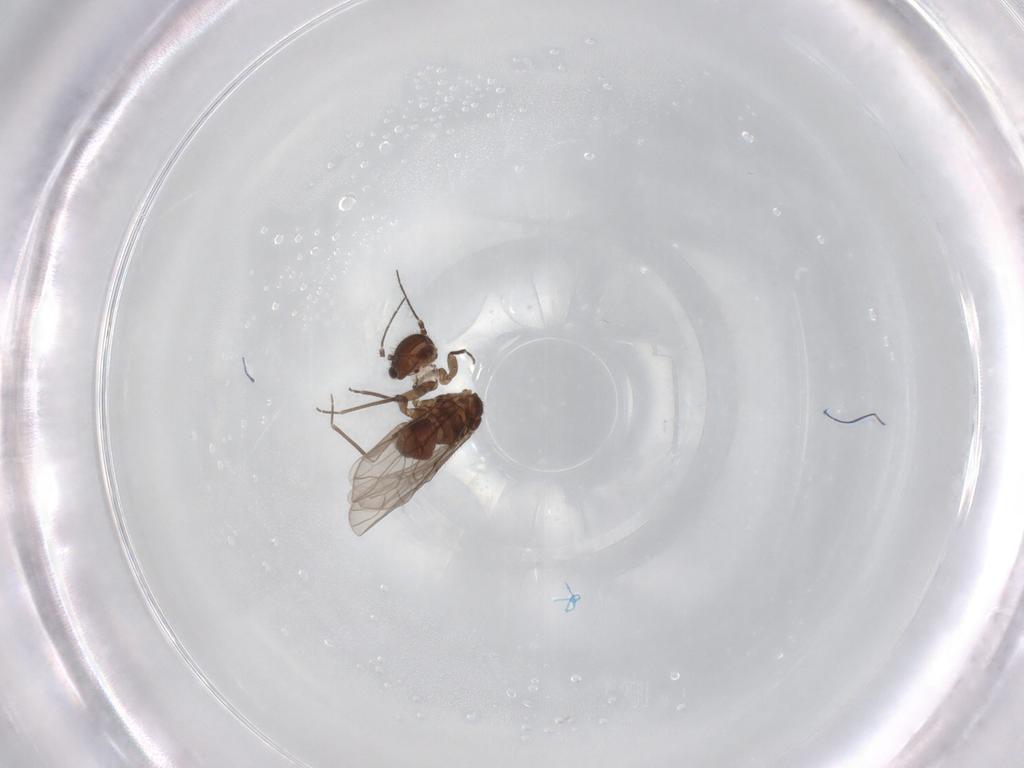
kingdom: Animalia
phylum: Arthropoda
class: Insecta
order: Psocodea
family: Ectopsocidae
